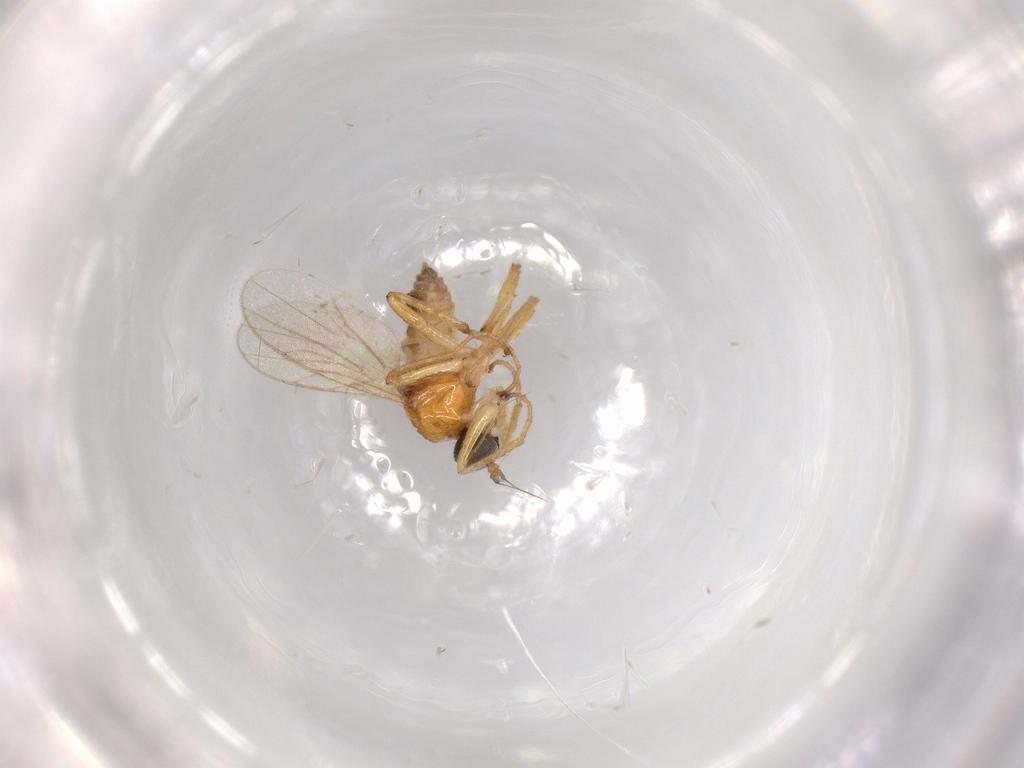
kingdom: Animalia
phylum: Arthropoda
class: Insecta
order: Diptera
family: Hybotidae
